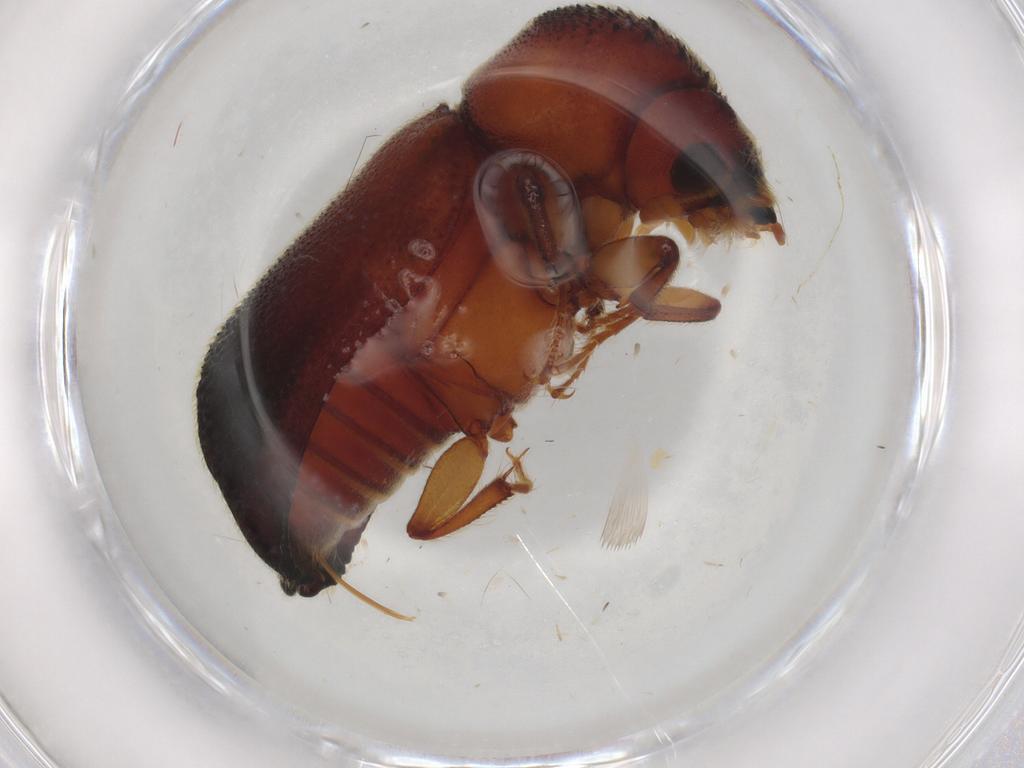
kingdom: Animalia
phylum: Arthropoda
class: Insecta
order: Coleoptera
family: Bostrichidae
